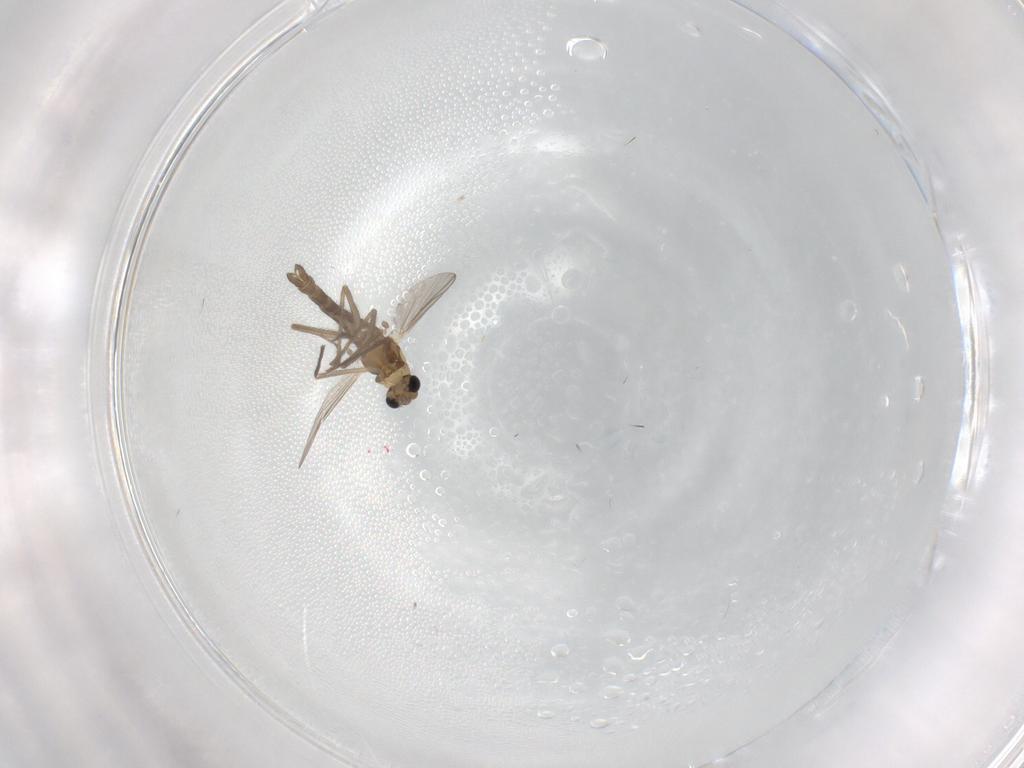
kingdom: Animalia
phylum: Arthropoda
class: Insecta
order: Diptera
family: Chironomidae
